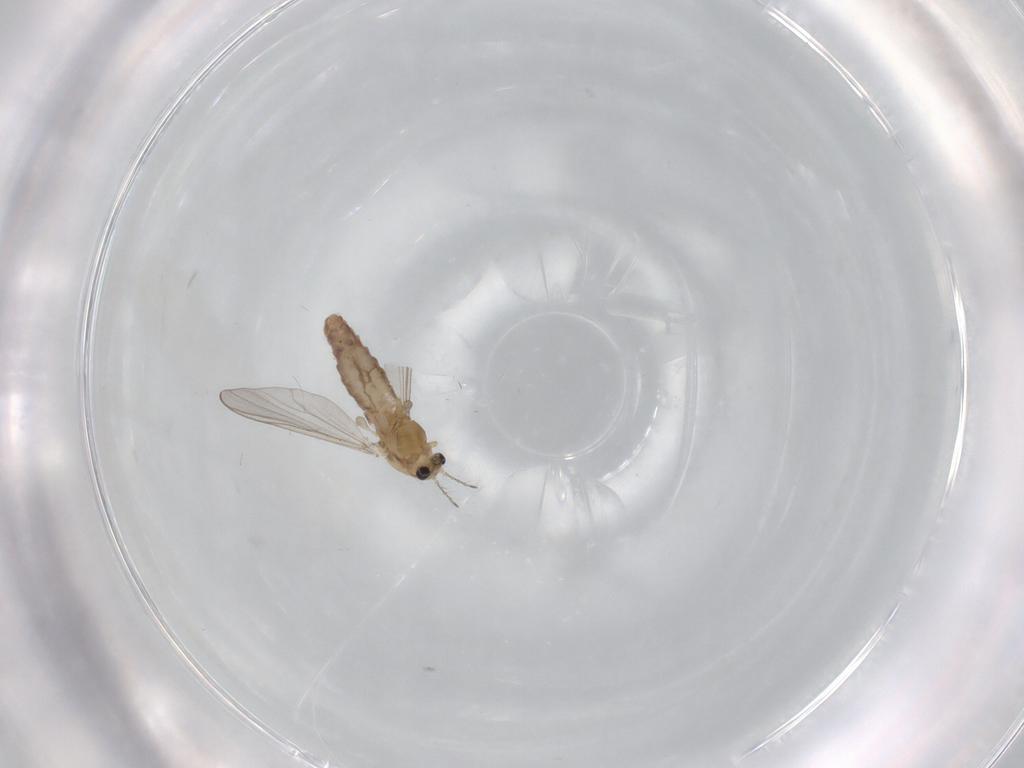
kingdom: Animalia
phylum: Arthropoda
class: Insecta
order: Diptera
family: Chironomidae
